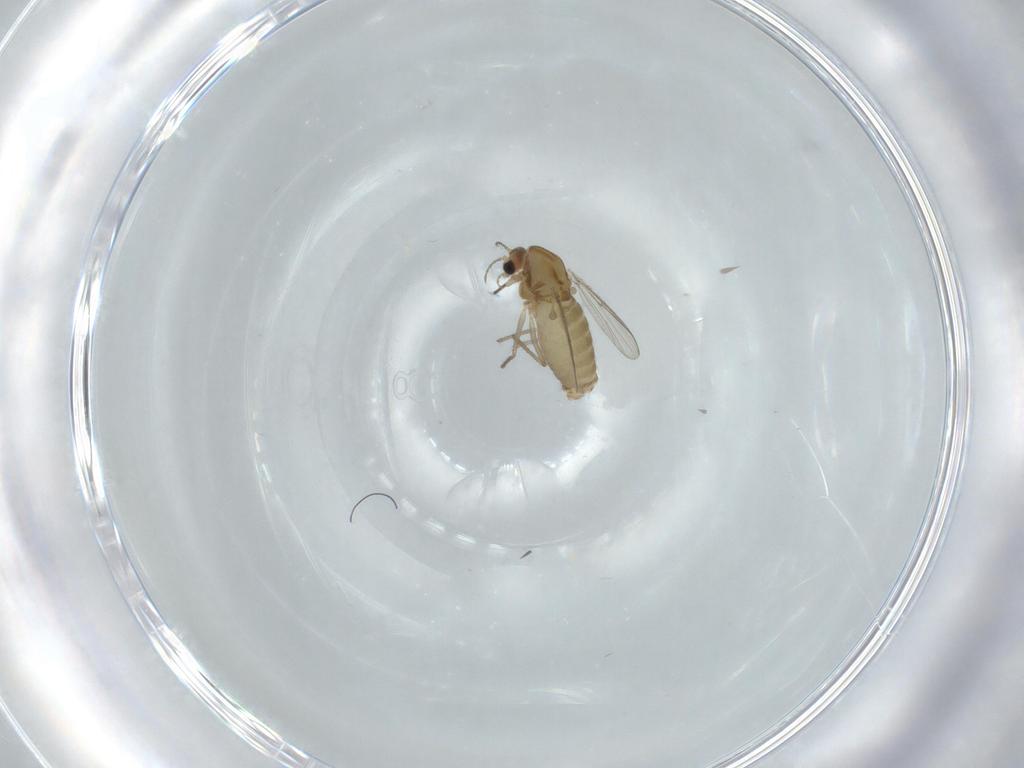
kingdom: Animalia
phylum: Arthropoda
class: Insecta
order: Diptera
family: Chironomidae
